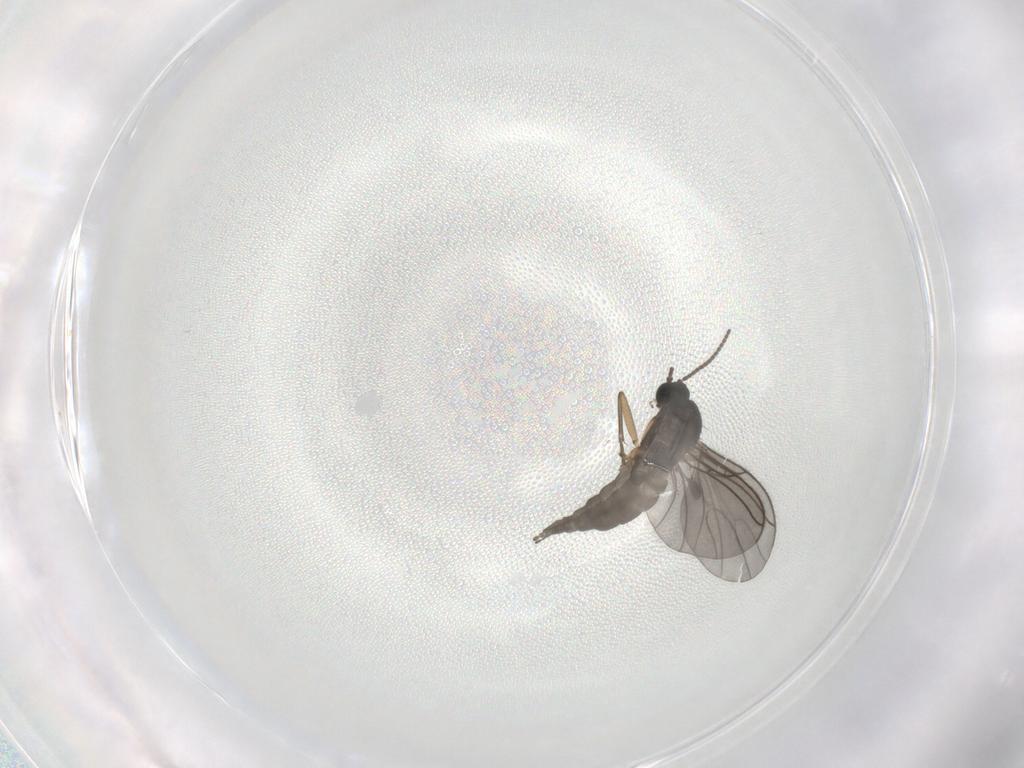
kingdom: Animalia
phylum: Arthropoda
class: Insecta
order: Diptera
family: Sciaridae
